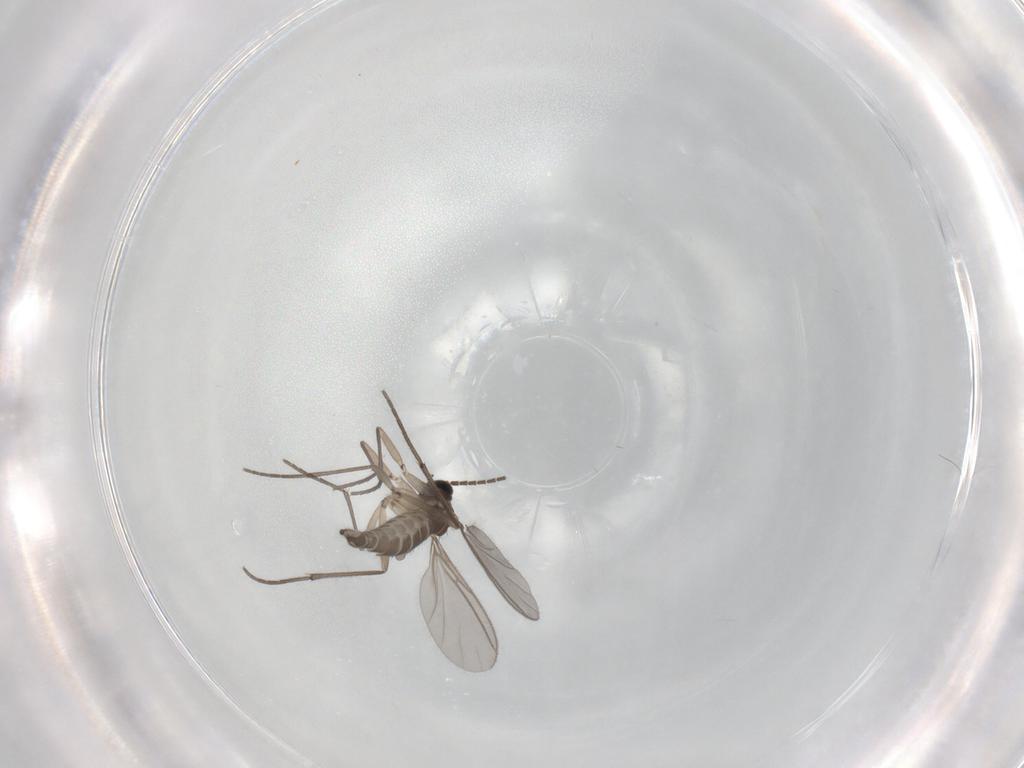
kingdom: Animalia
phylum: Arthropoda
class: Insecta
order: Diptera
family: Sciaridae
